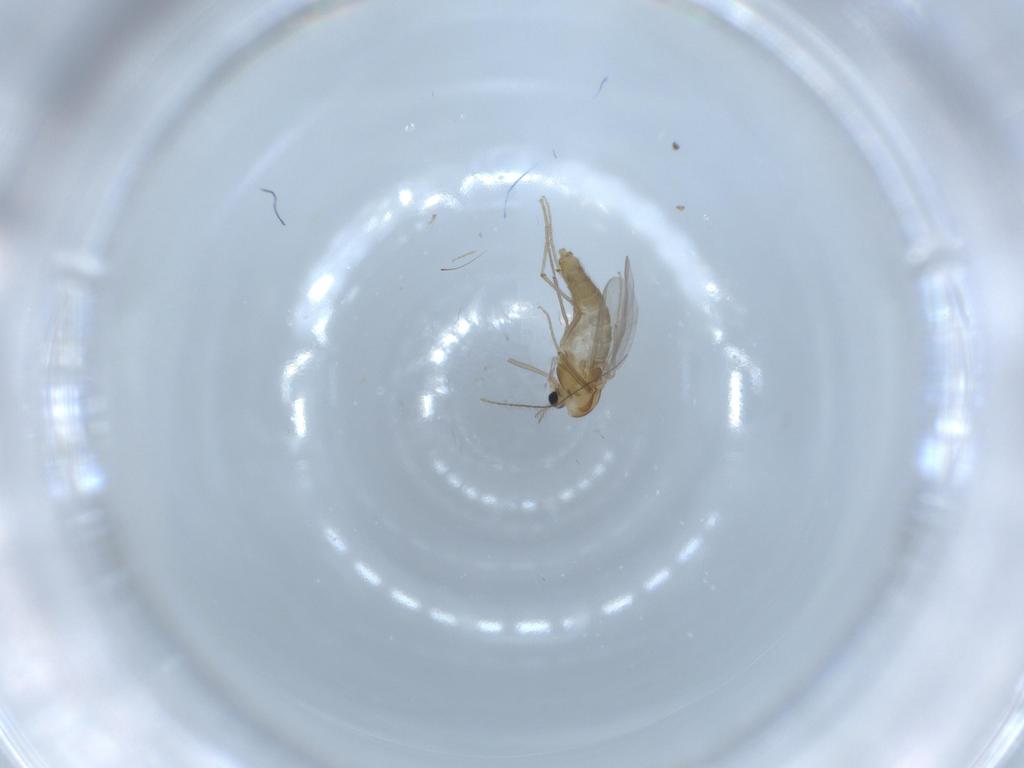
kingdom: Animalia
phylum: Arthropoda
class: Insecta
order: Diptera
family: Chironomidae
